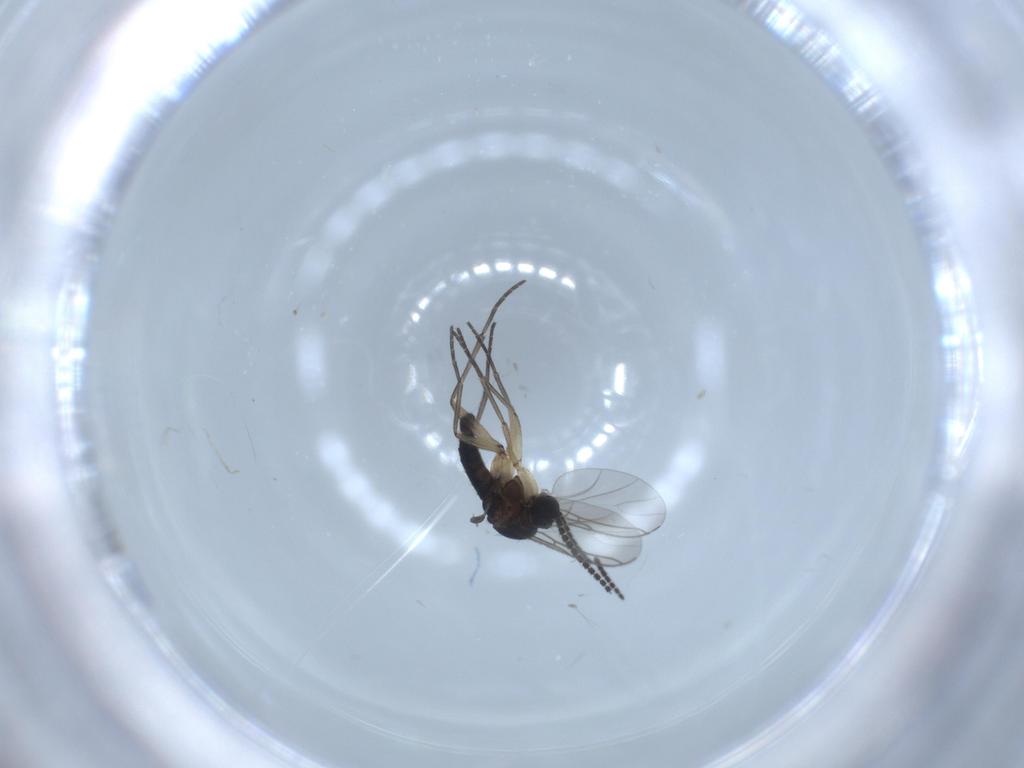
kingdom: Animalia
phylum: Arthropoda
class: Insecta
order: Diptera
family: Sciaridae
